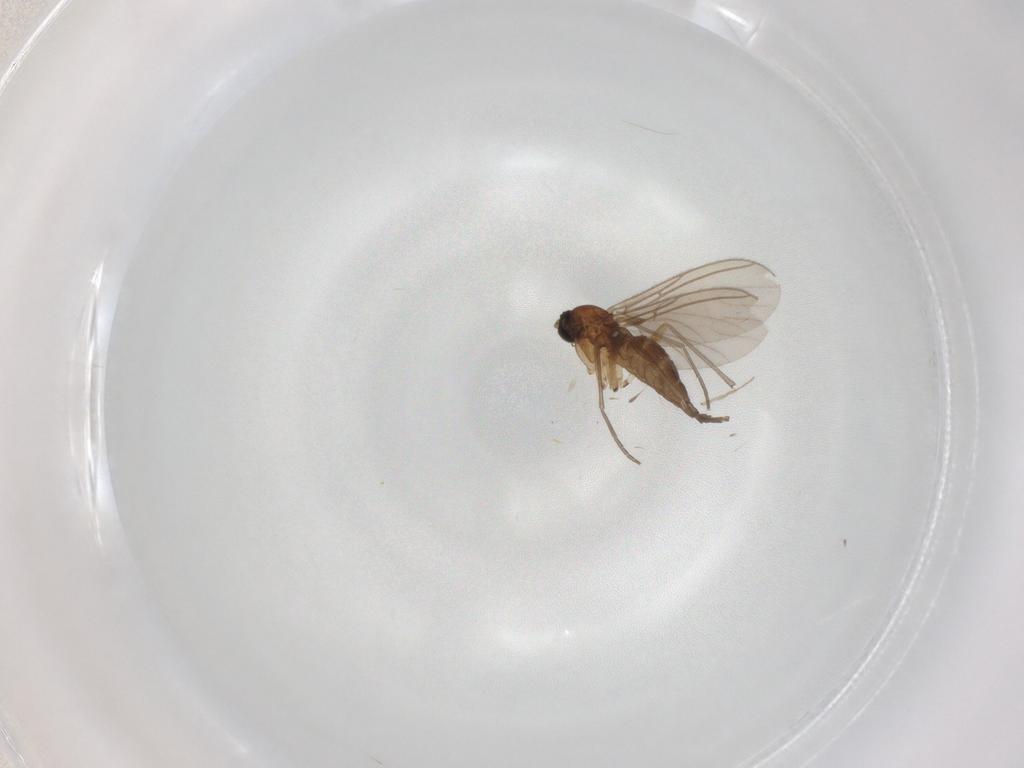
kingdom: Animalia
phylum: Arthropoda
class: Insecta
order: Diptera
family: Sciaridae
